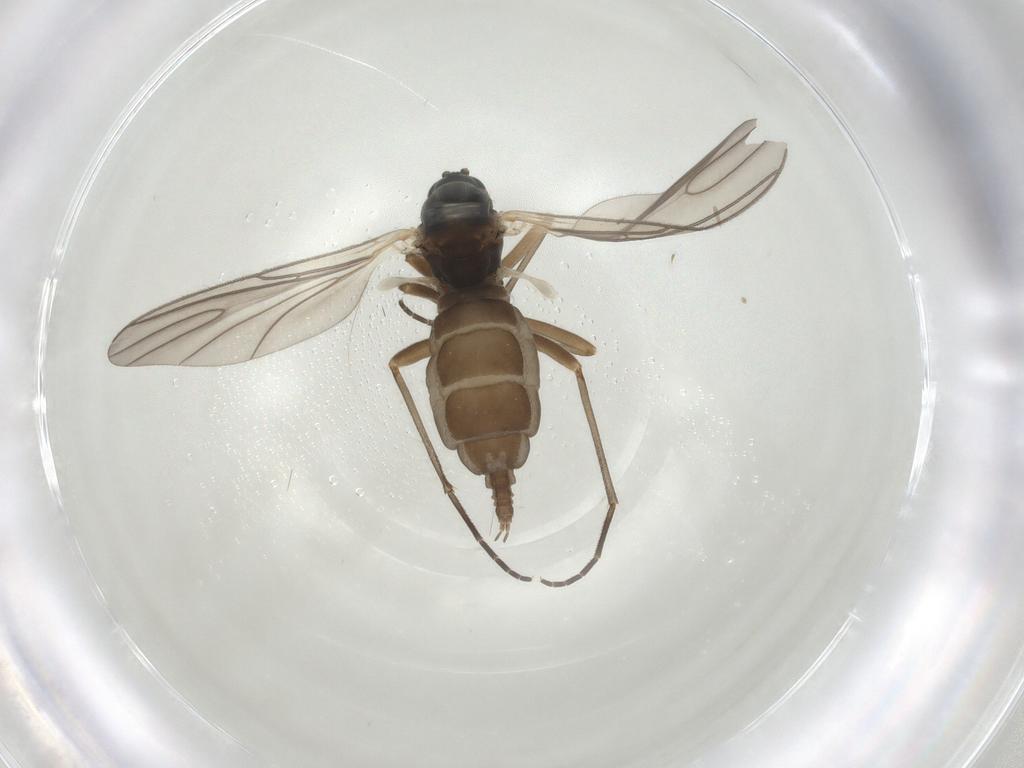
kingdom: Animalia
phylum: Arthropoda
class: Insecta
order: Diptera
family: Sciaridae
